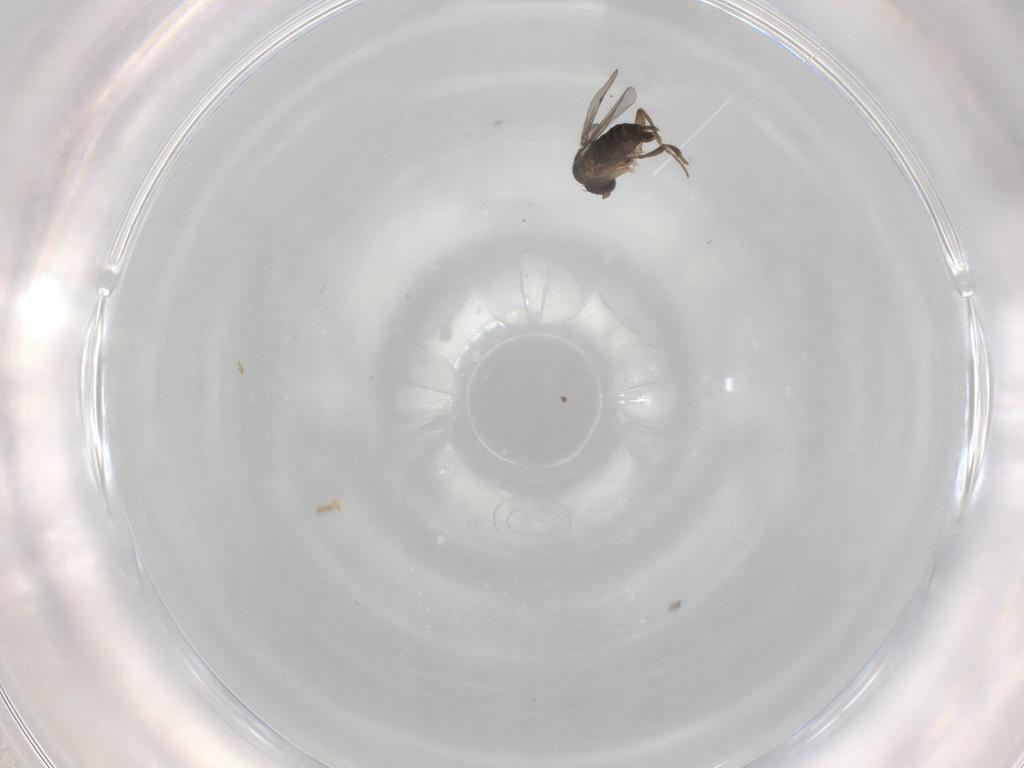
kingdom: Animalia
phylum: Arthropoda
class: Insecta
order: Diptera
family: Phoridae
